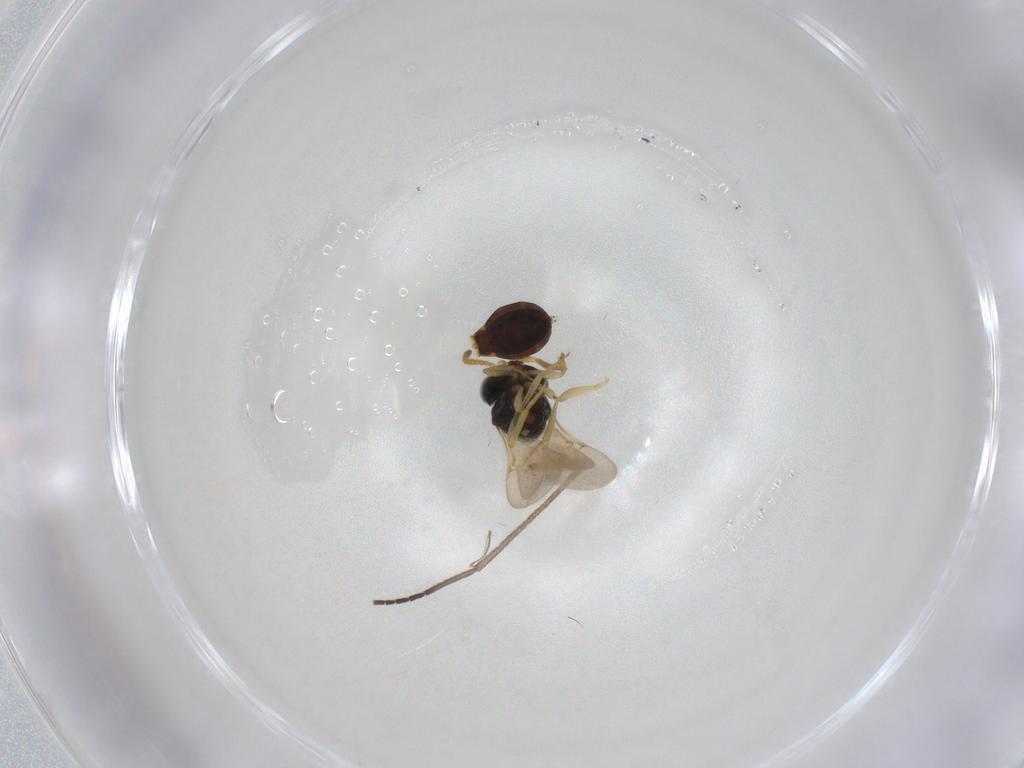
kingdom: Animalia
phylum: Arthropoda
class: Insecta
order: Hymenoptera
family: Scelionidae
